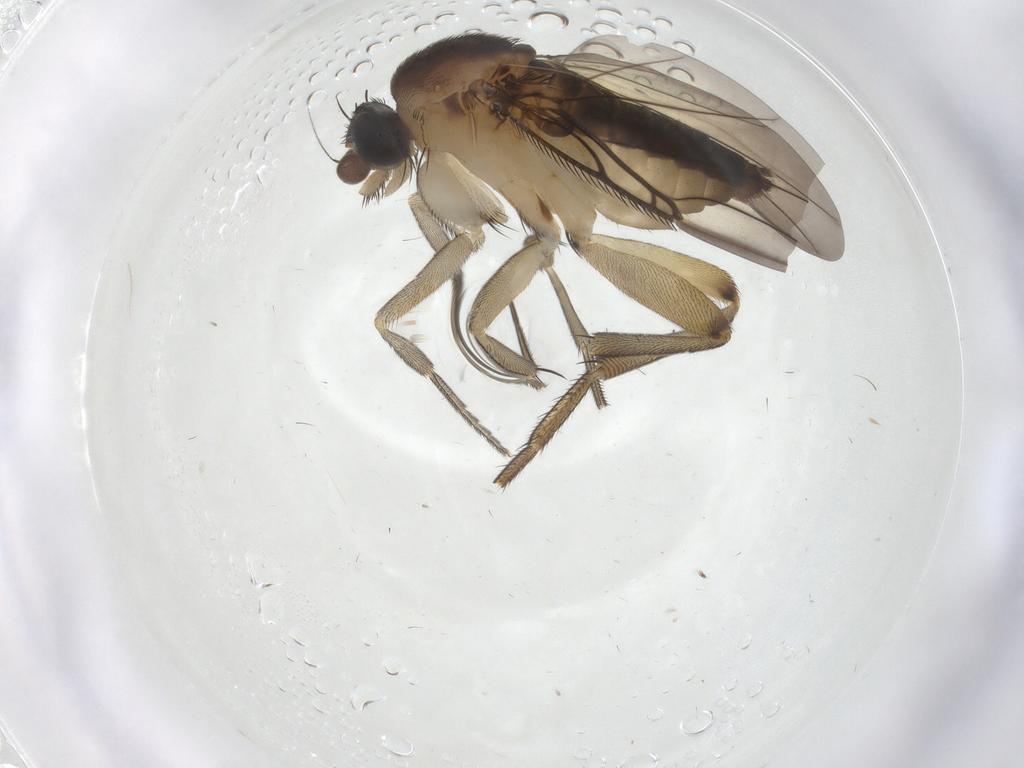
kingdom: Animalia
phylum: Arthropoda
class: Insecta
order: Diptera
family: Phoridae
